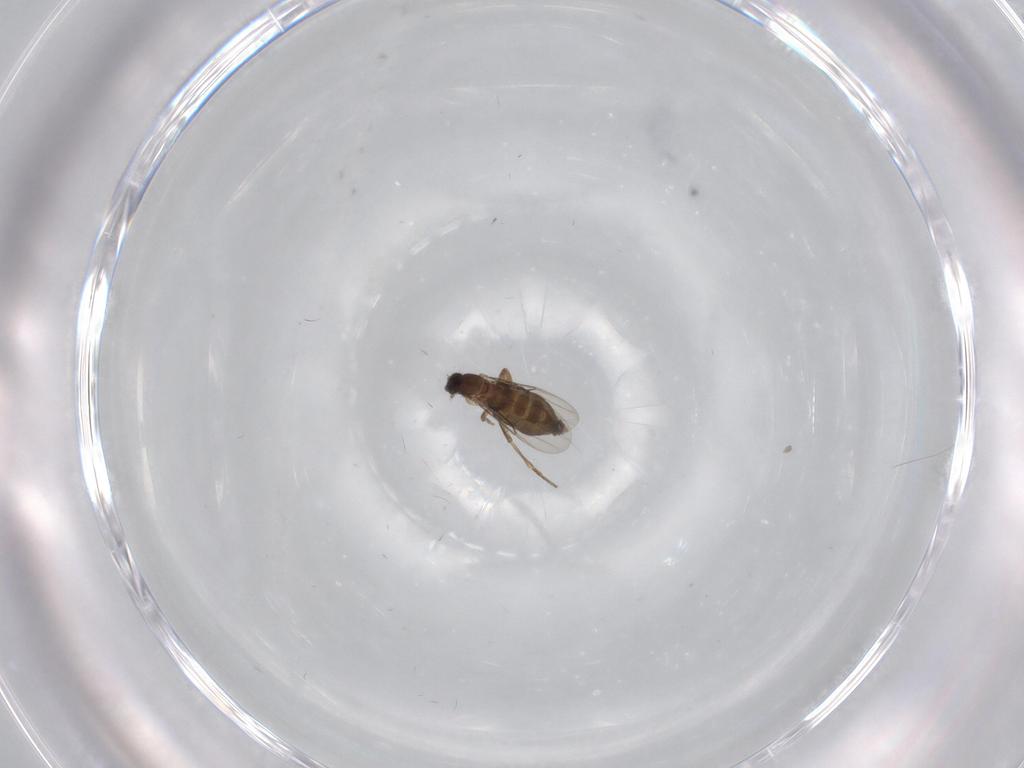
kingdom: Animalia
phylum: Arthropoda
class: Insecta
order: Diptera
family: Phoridae
